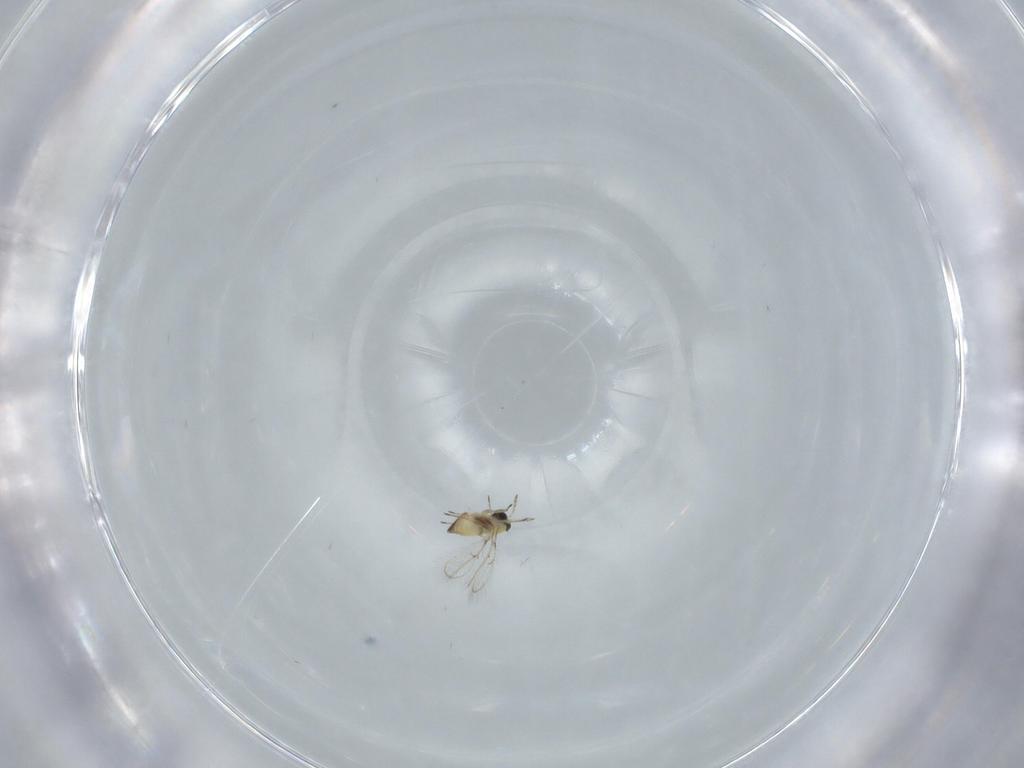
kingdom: Animalia
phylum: Arthropoda
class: Insecta
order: Hymenoptera
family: Trichogrammatidae
